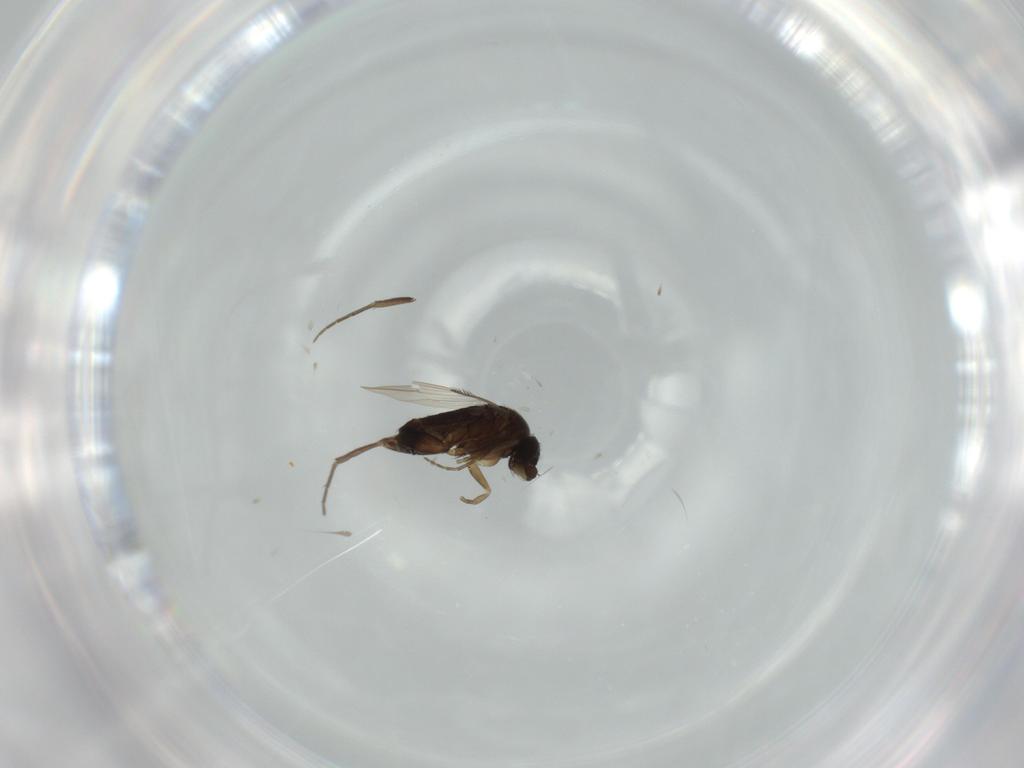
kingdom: Animalia
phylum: Arthropoda
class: Insecta
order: Diptera
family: Phoridae
